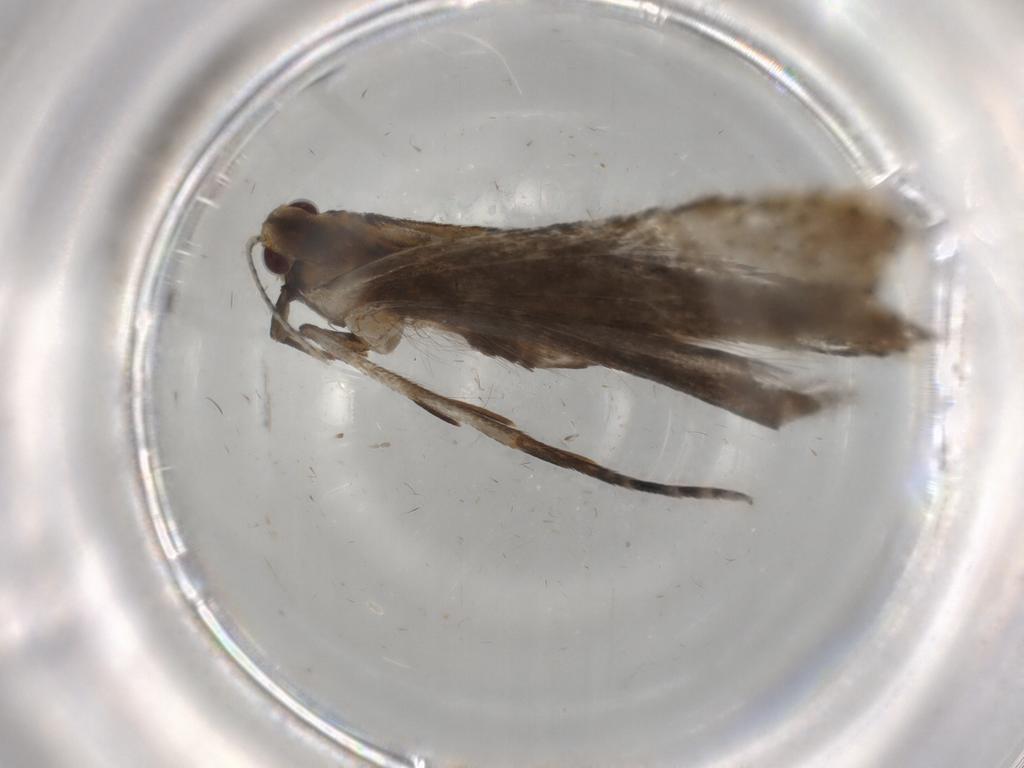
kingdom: Animalia
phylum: Arthropoda
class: Insecta
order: Lepidoptera
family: Gelechiidae
